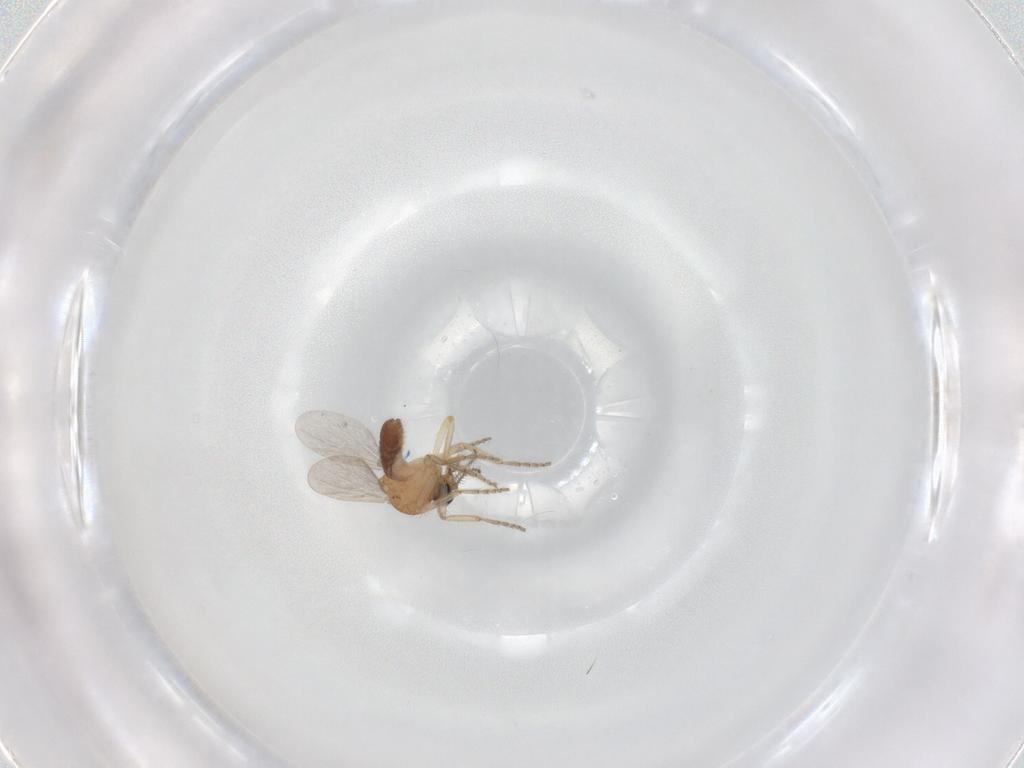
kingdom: Animalia
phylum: Arthropoda
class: Insecta
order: Diptera
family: Ceratopogonidae
